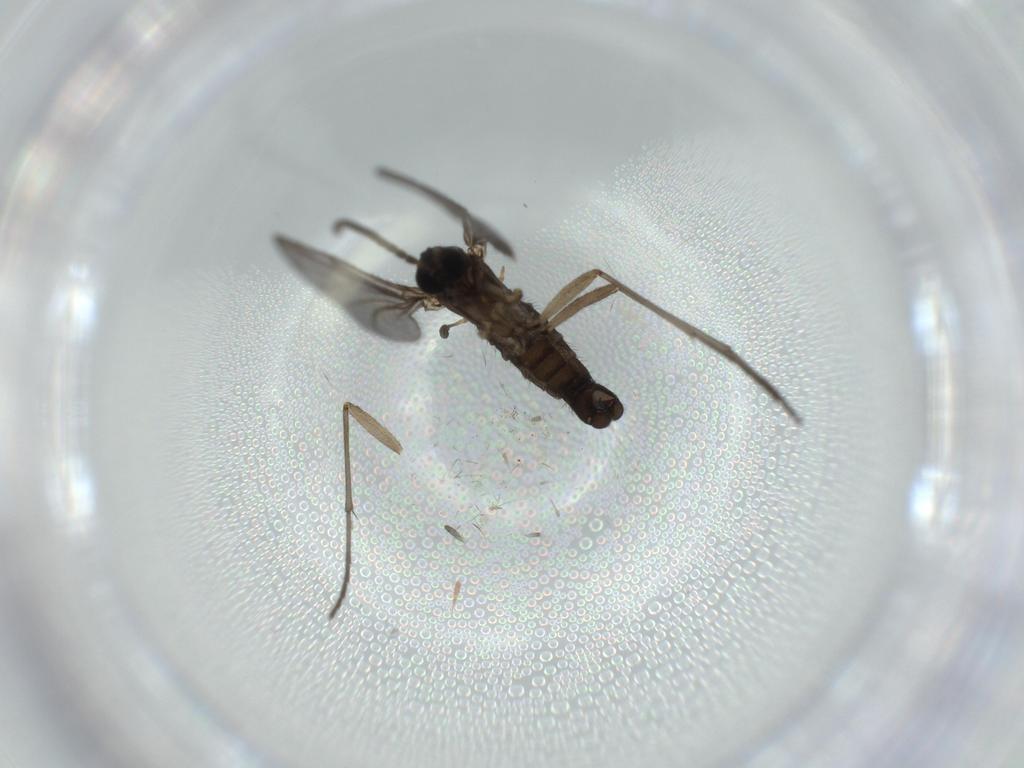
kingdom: Animalia
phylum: Arthropoda
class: Insecta
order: Diptera
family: Sciaridae
